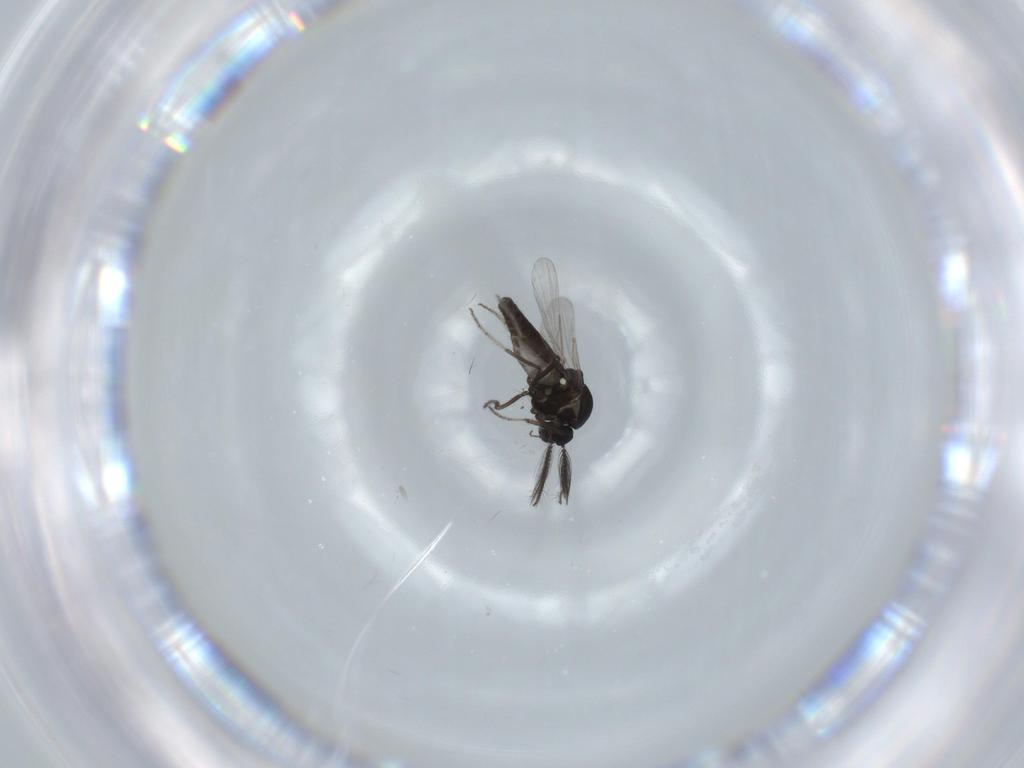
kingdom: Animalia
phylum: Arthropoda
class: Insecta
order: Diptera
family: Ceratopogonidae
